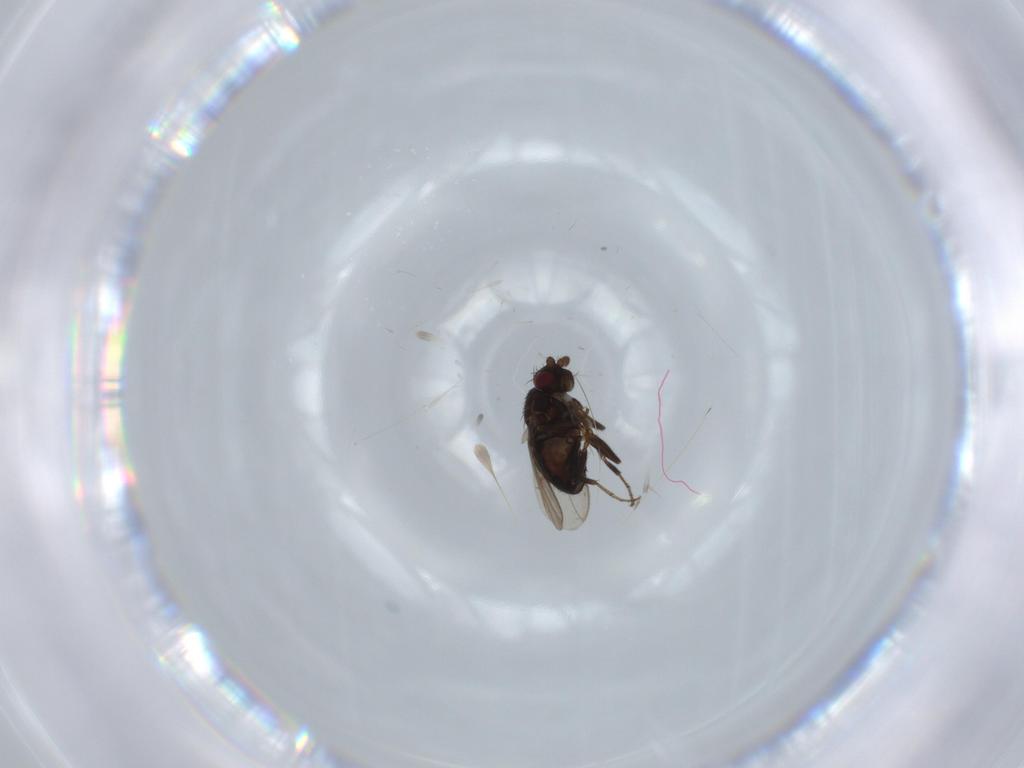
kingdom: Animalia
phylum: Arthropoda
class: Insecta
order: Diptera
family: Sphaeroceridae
